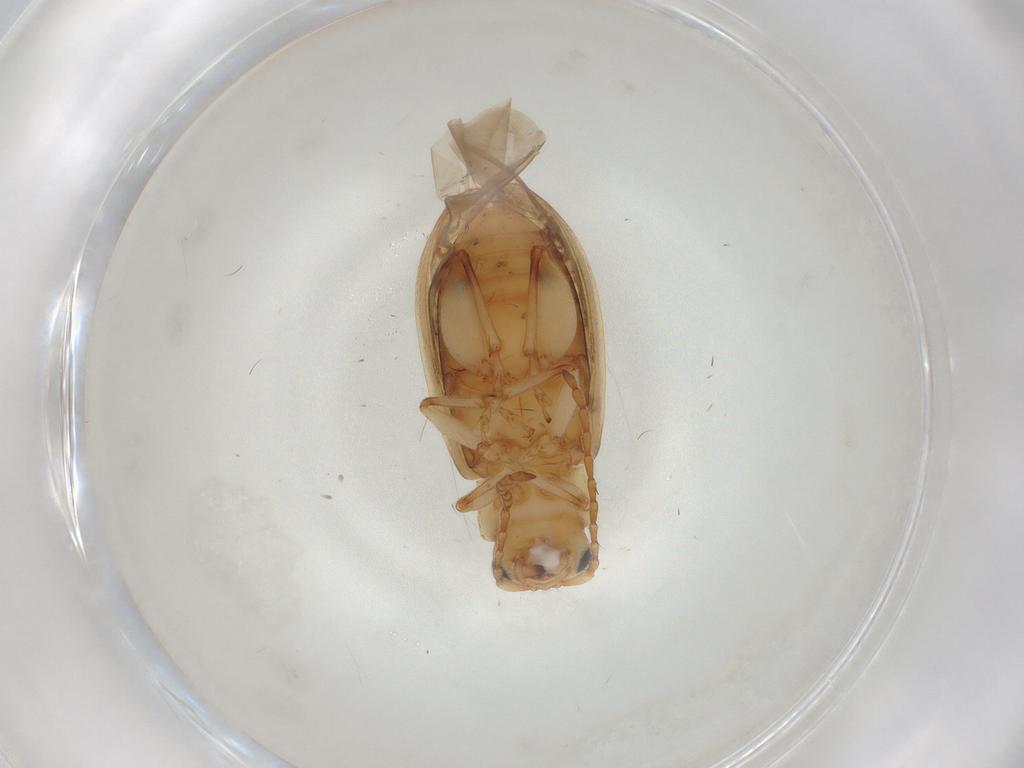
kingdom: Animalia
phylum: Arthropoda
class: Insecta
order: Coleoptera
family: Chrysomelidae
